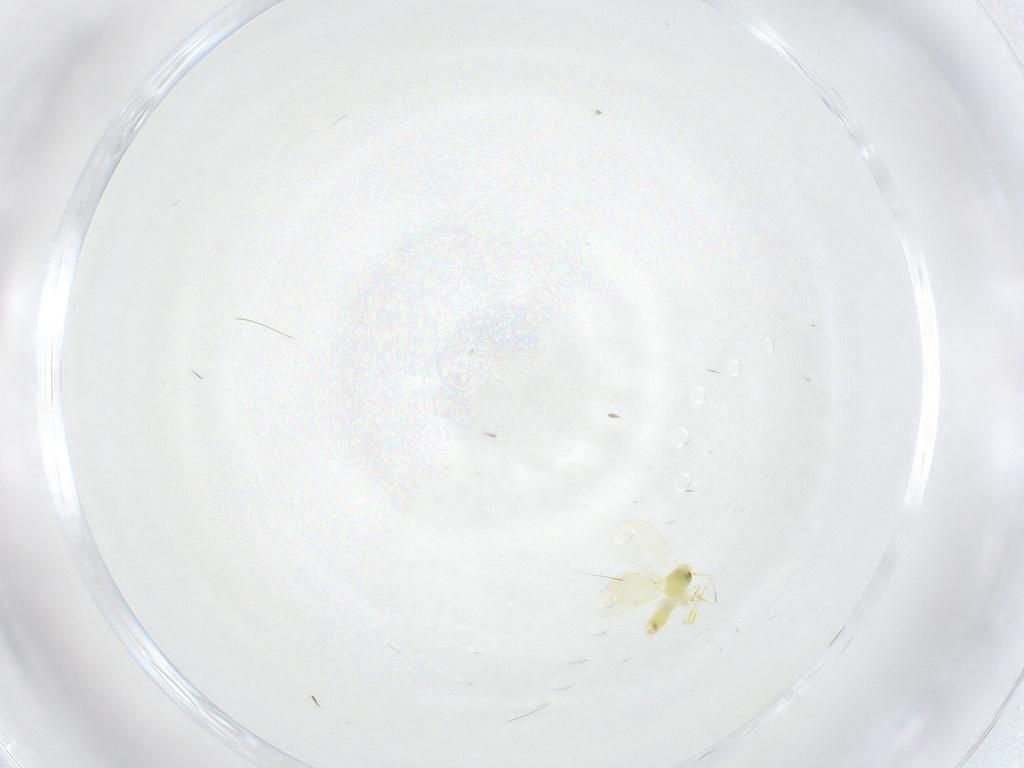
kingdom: Animalia
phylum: Arthropoda
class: Insecta
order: Hemiptera
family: Aleyrodidae
